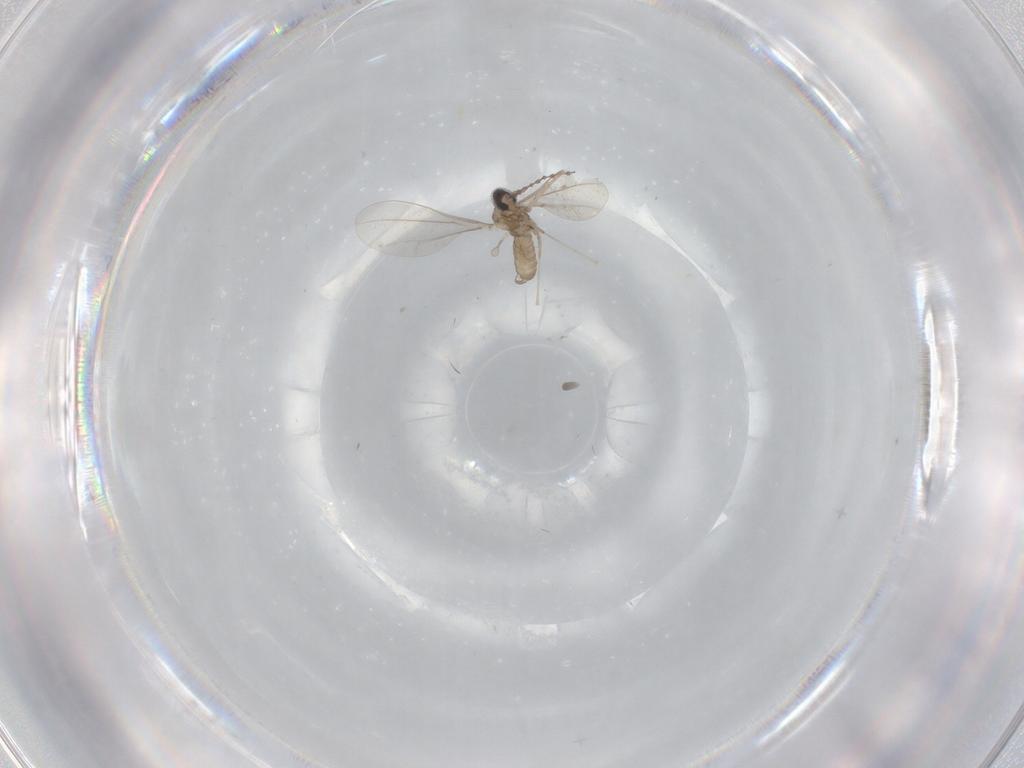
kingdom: Animalia
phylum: Arthropoda
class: Insecta
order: Diptera
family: Cecidomyiidae
